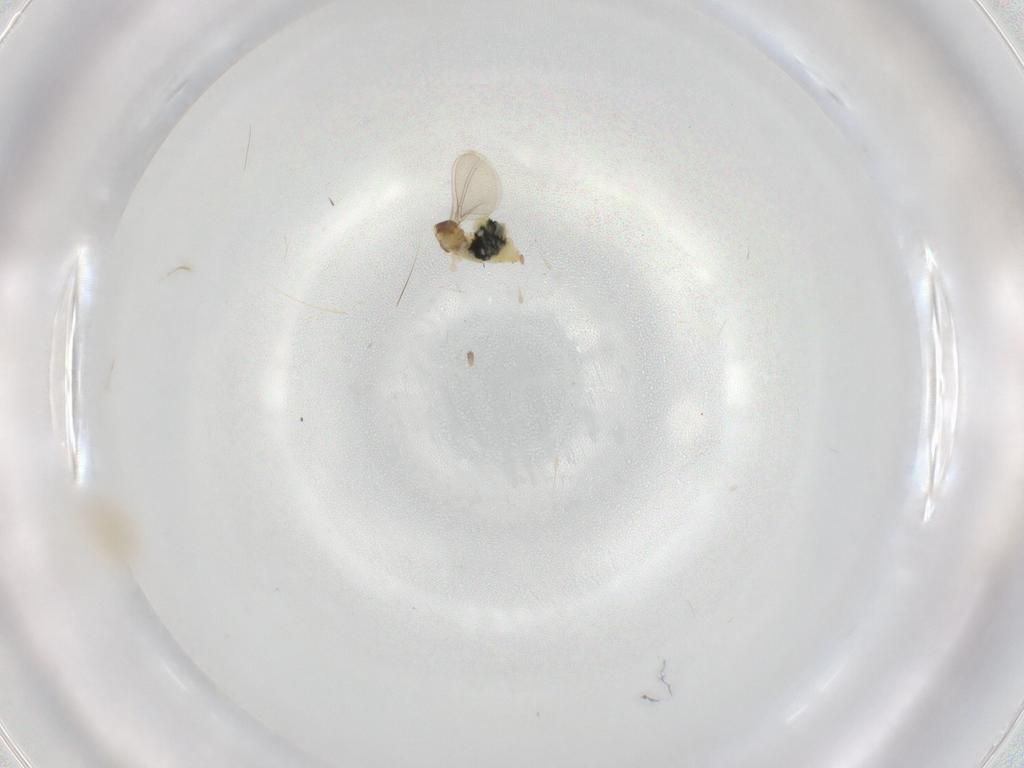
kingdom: Animalia
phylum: Arthropoda
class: Insecta
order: Diptera
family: Cecidomyiidae
